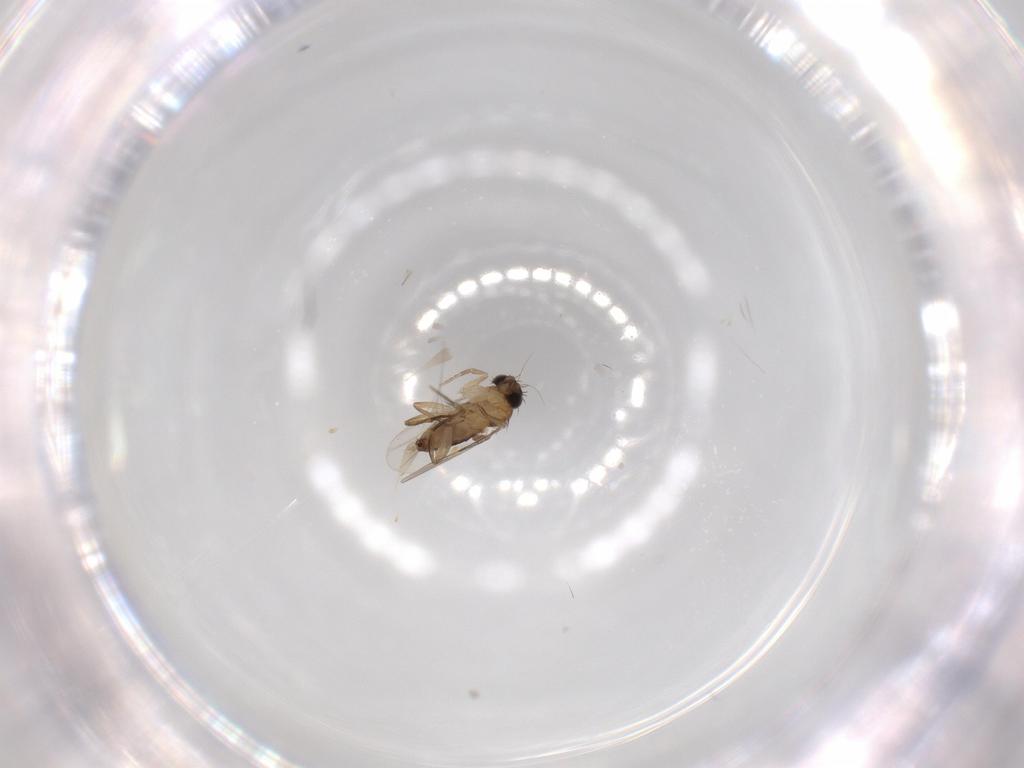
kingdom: Animalia
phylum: Arthropoda
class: Insecta
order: Diptera
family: Phoridae
